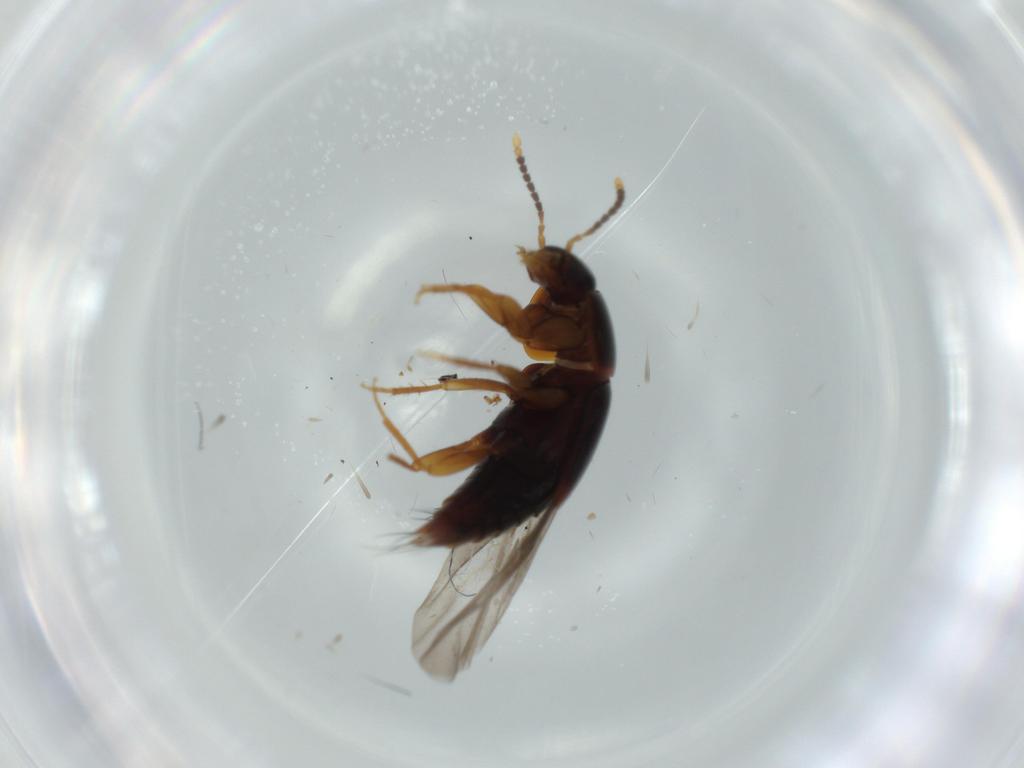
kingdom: Animalia
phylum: Arthropoda
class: Insecta
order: Coleoptera
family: Staphylinidae
